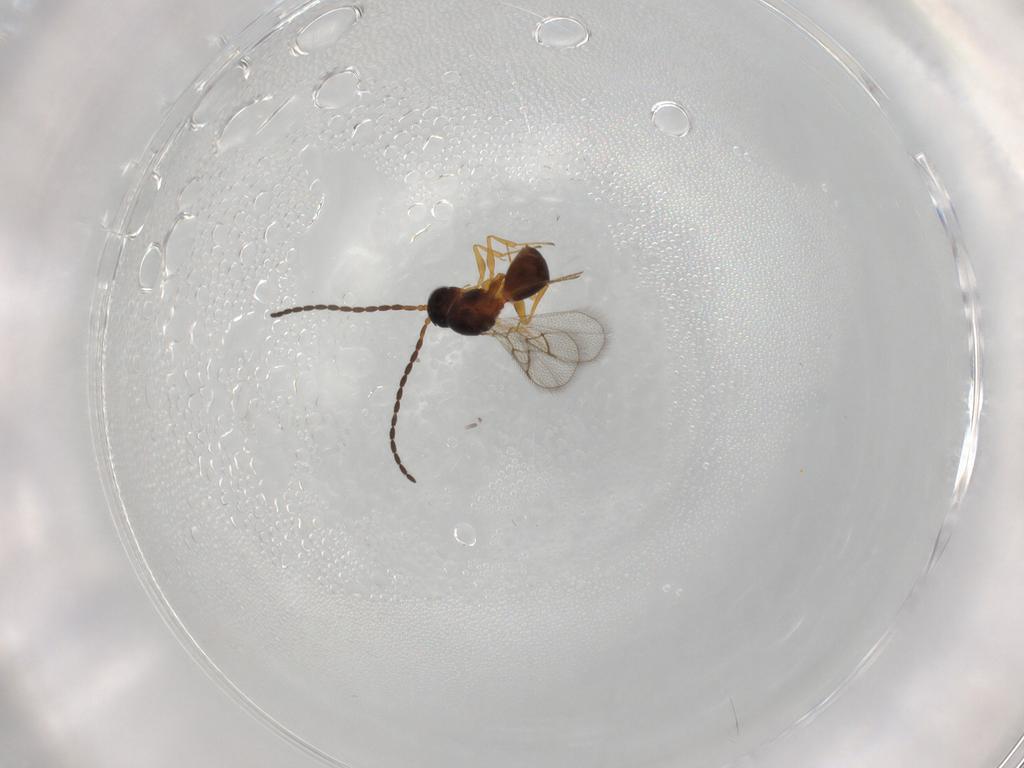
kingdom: Animalia
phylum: Arthropoda
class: Insecta
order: Hymenoptera
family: Figitidae
